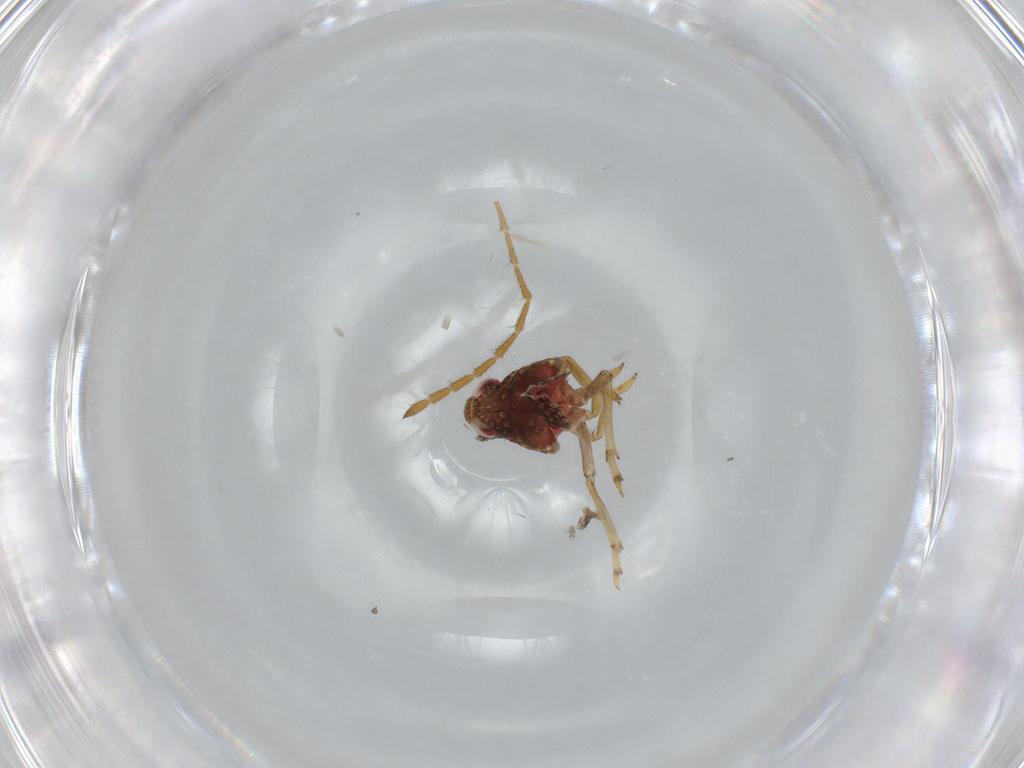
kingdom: Animalia
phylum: Arthropoda
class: Insecta
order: Hemiptera
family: Issidae
